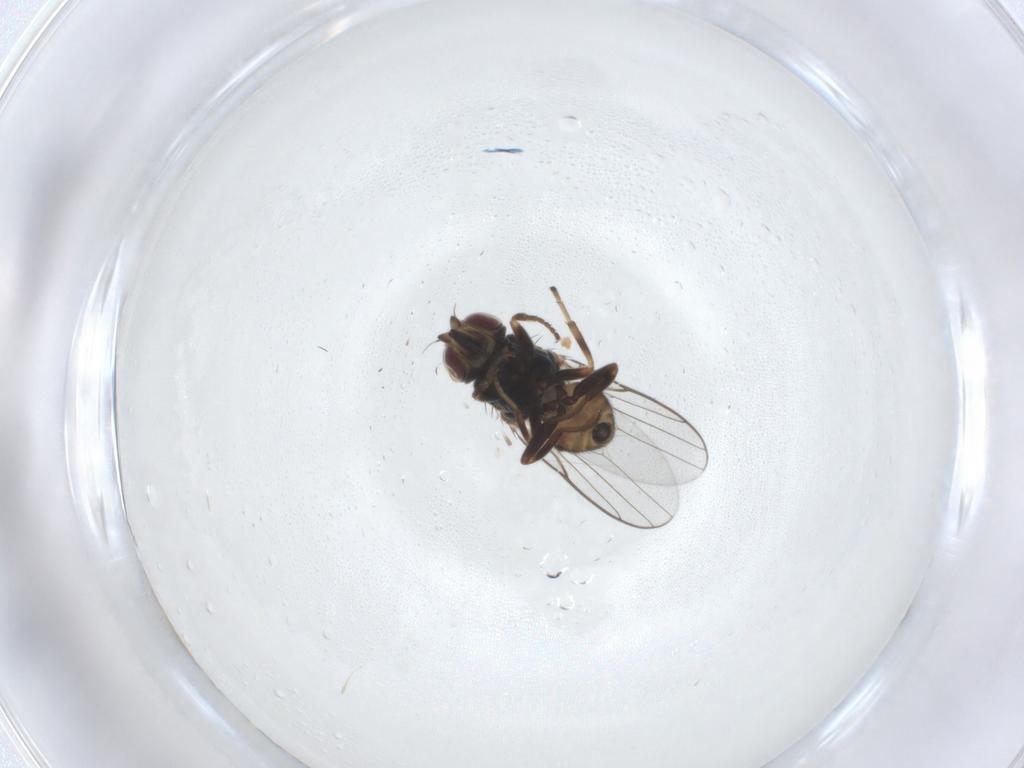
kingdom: Animalia
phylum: Arthropoda
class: Insecta
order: Diptera
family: Chloropidae
